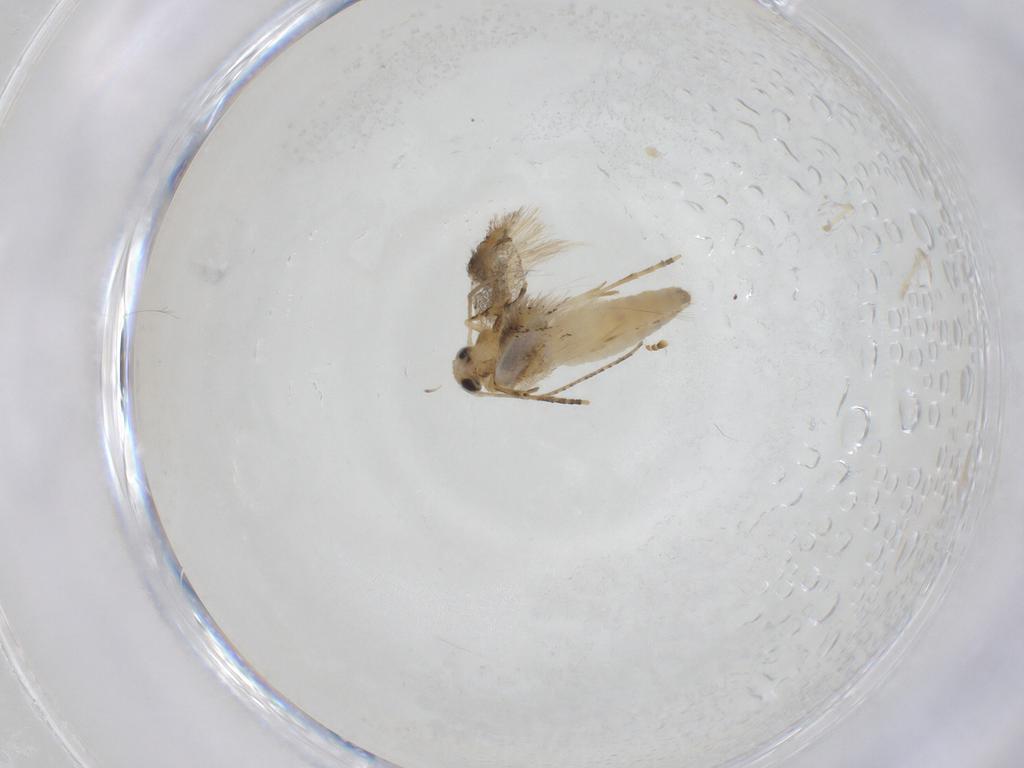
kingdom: Animalia
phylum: Arthropoda
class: Insecta
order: Lepidoptera
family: Bucculatricidae
